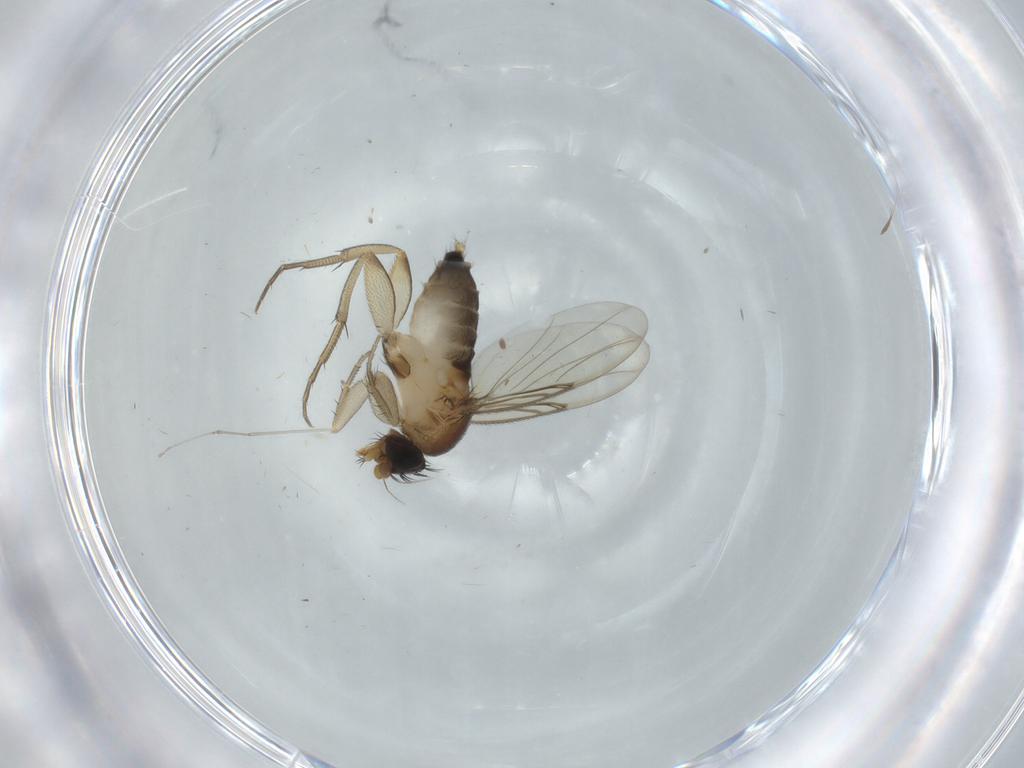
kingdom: Animalia
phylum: Arthropoda
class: Insecta
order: Diptera
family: Phoridae
